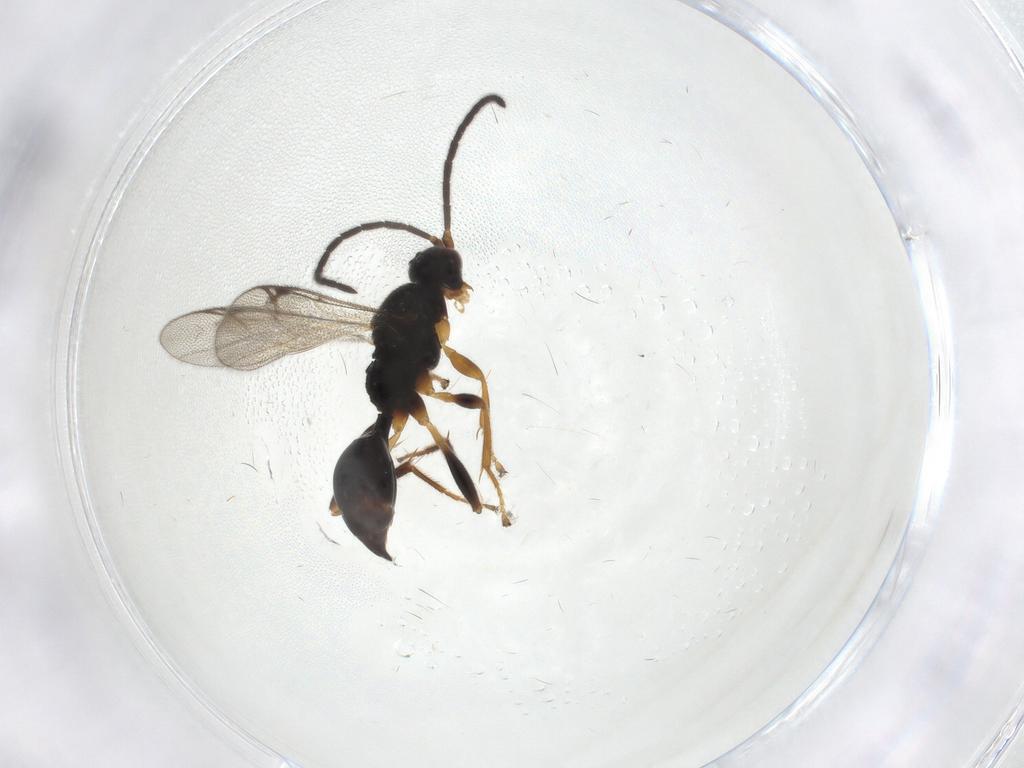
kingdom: Animalia
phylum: Arthropoda
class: Insecta
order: Hymenoptera
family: Proctotrupidae
